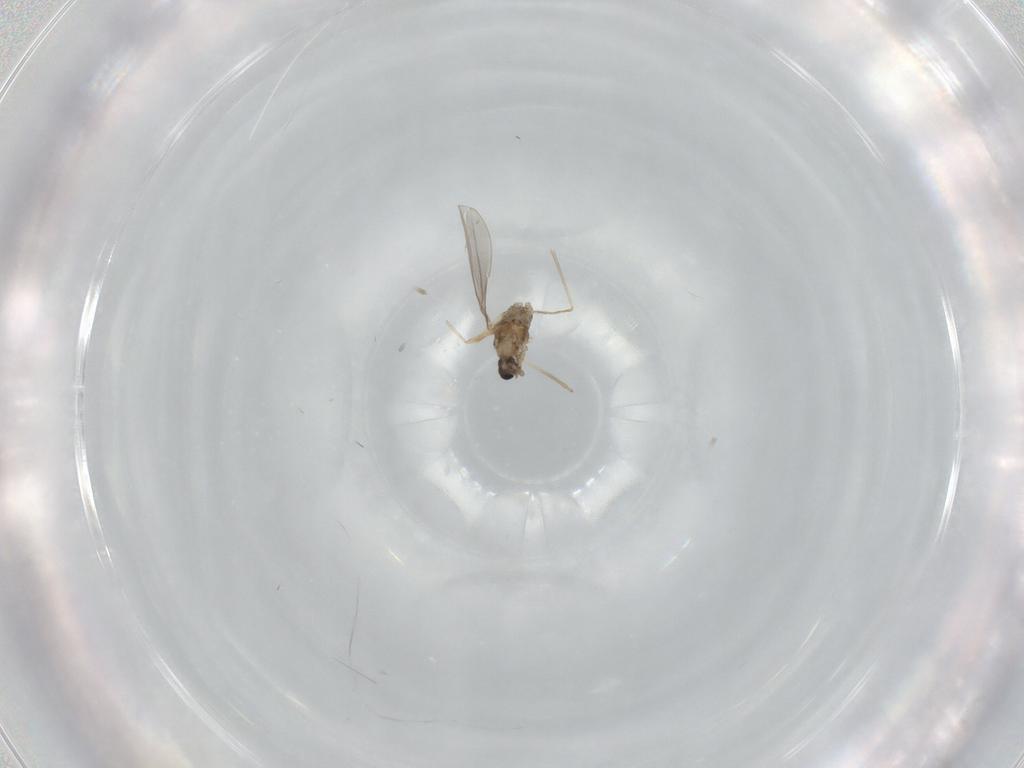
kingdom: Animalia
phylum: Arthropoda
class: Insecta
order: Diptera
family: Cecidomyiidae
